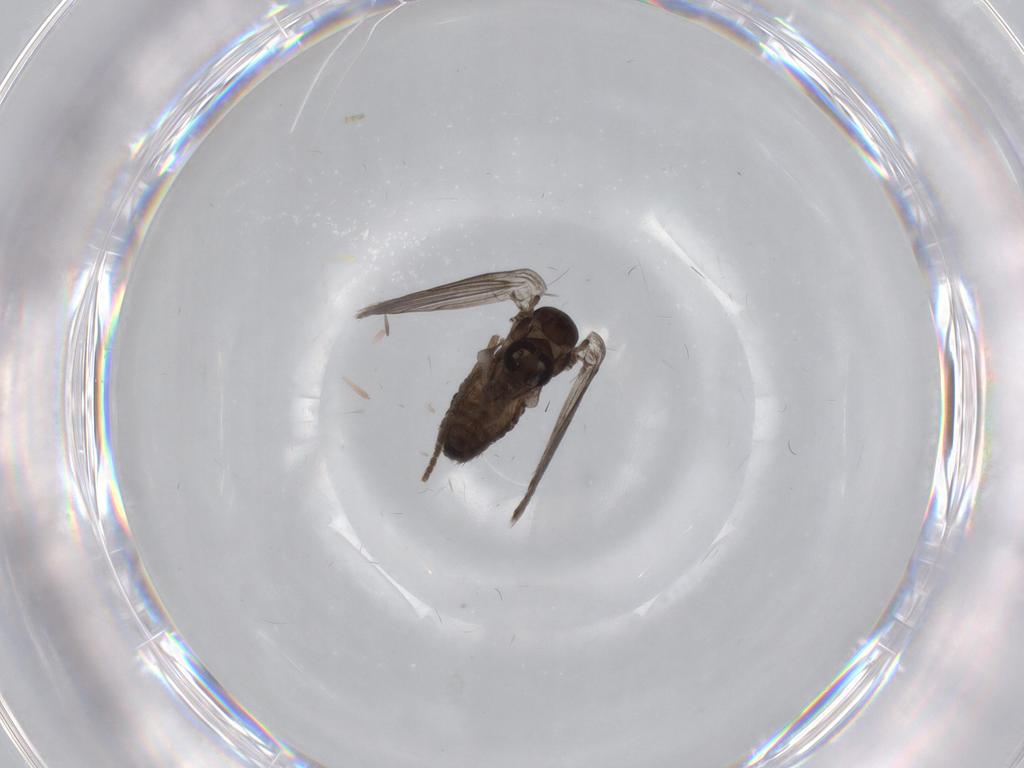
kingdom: Animalia
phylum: Arthropoda
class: Insecta
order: Diptera
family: Psychodidae
